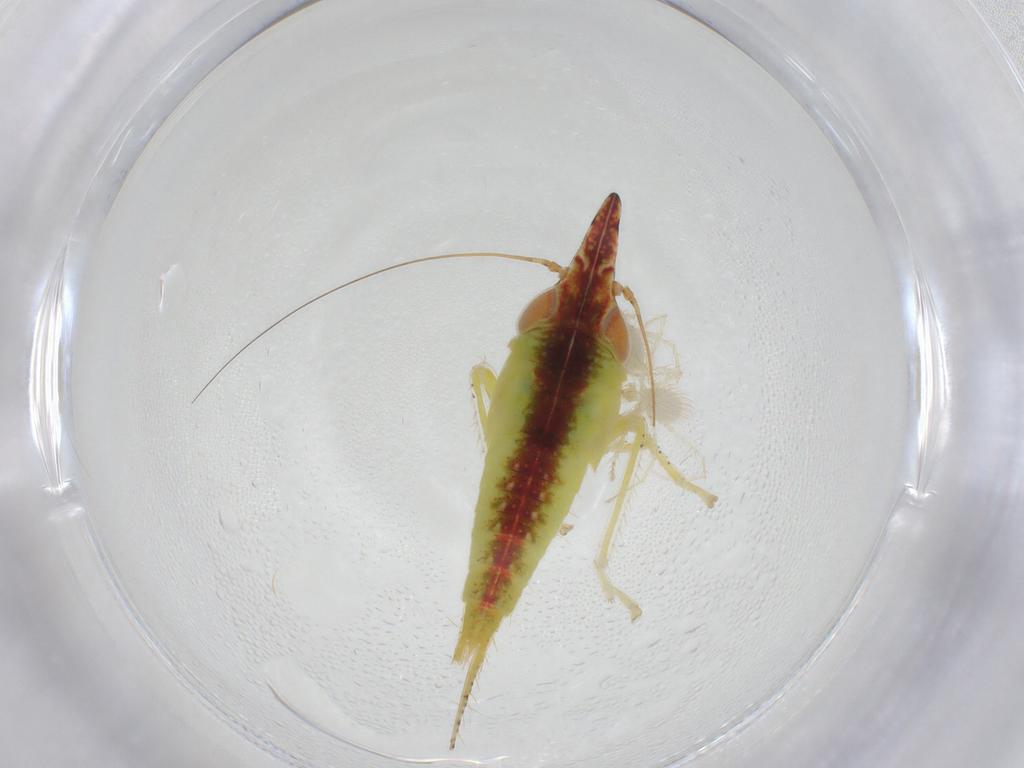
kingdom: Animalia
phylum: Arthropoda
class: Insecta
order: Hemiptera
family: Cicadellidae
